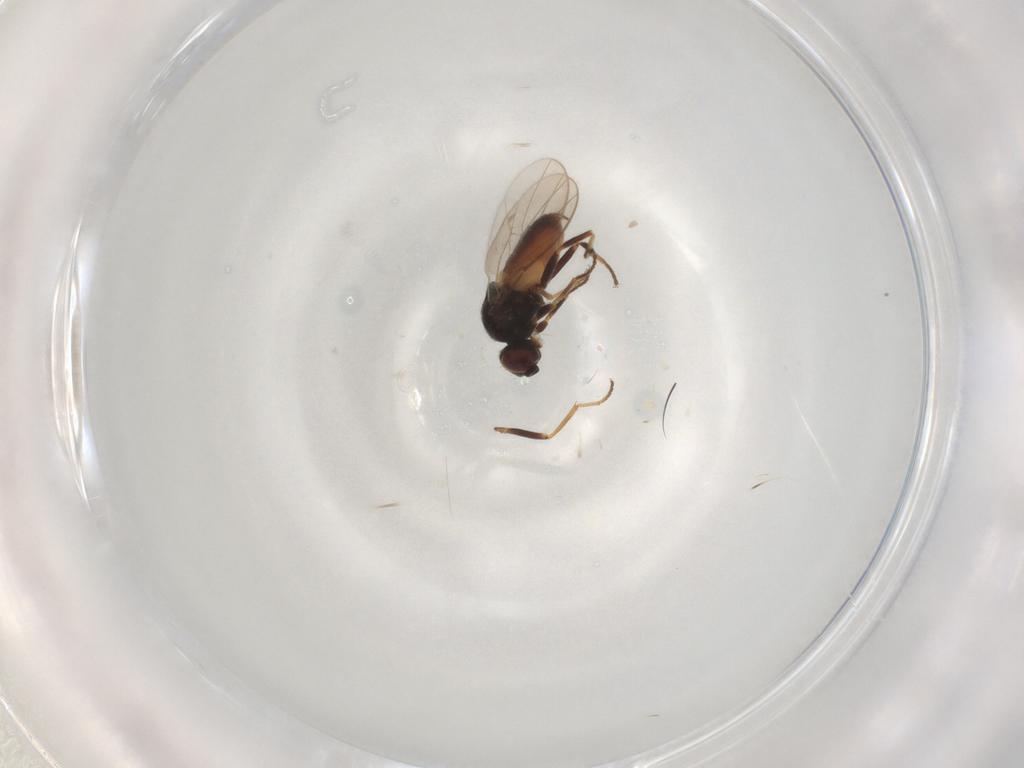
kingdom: Animalia
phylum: Arthropoda
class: Insecta
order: Diptera
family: Chloropidae
